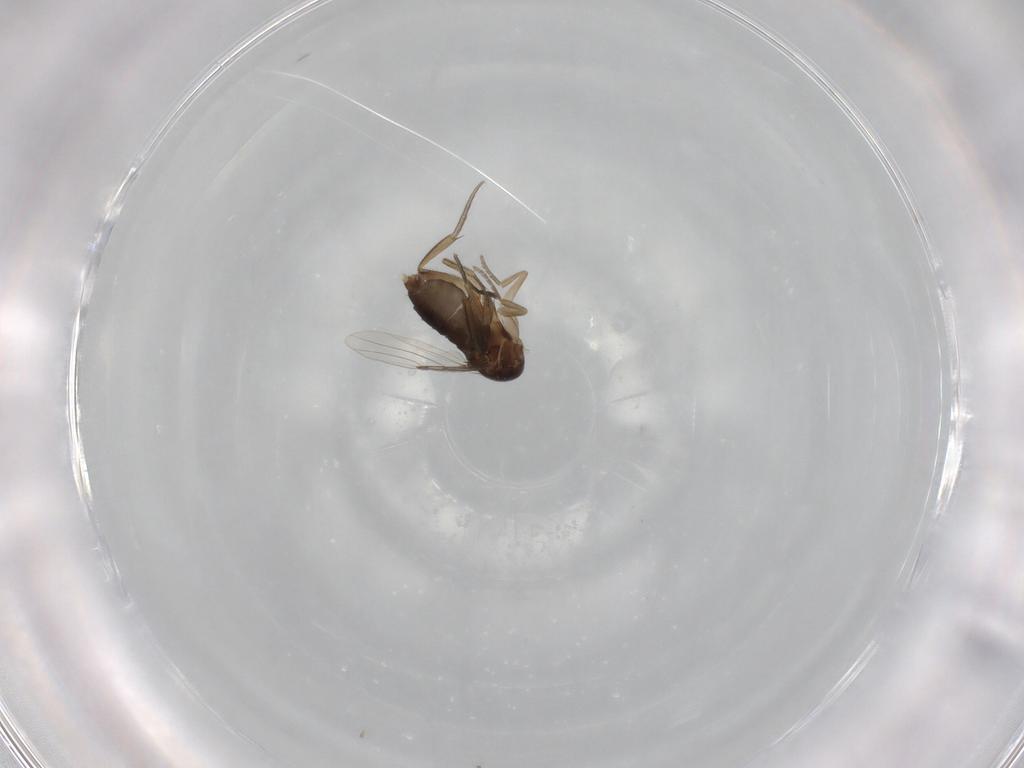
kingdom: Animalia
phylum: Arthropoda
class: Insecta
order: Diptera
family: Phoridae
